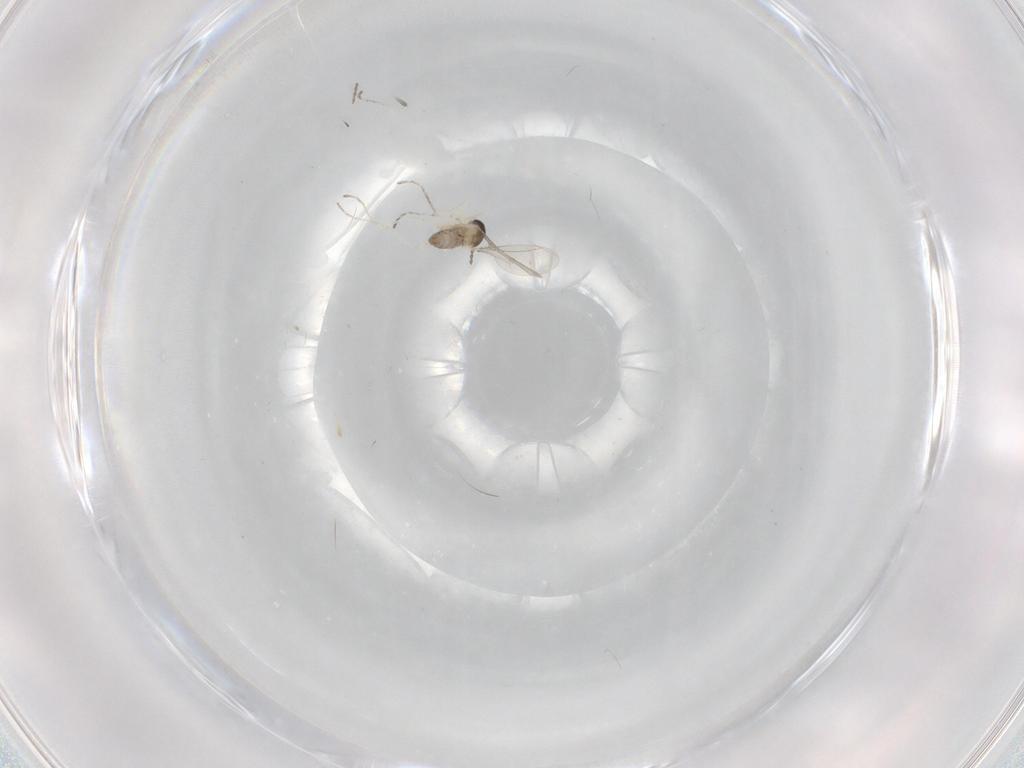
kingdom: Animalia
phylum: Arthropoda
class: Insecta
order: Diptera
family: Cecidomyiidae
